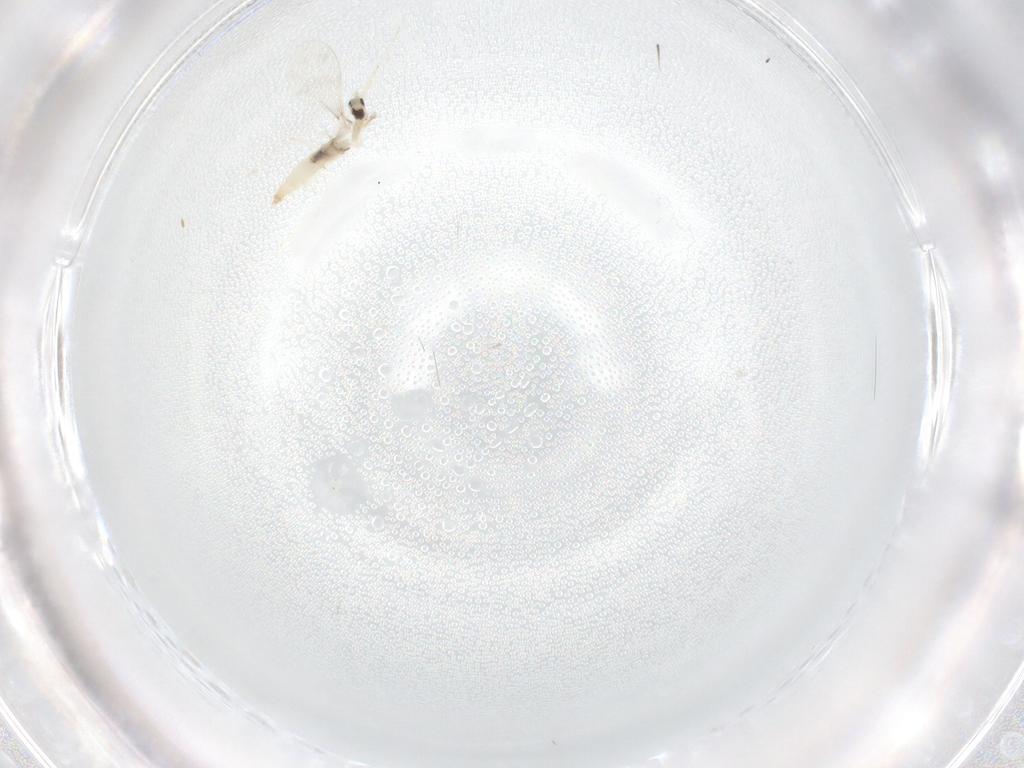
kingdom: Animalia
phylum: Arthropoda
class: Insecta
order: Diptera
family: Cecidomyiidae
